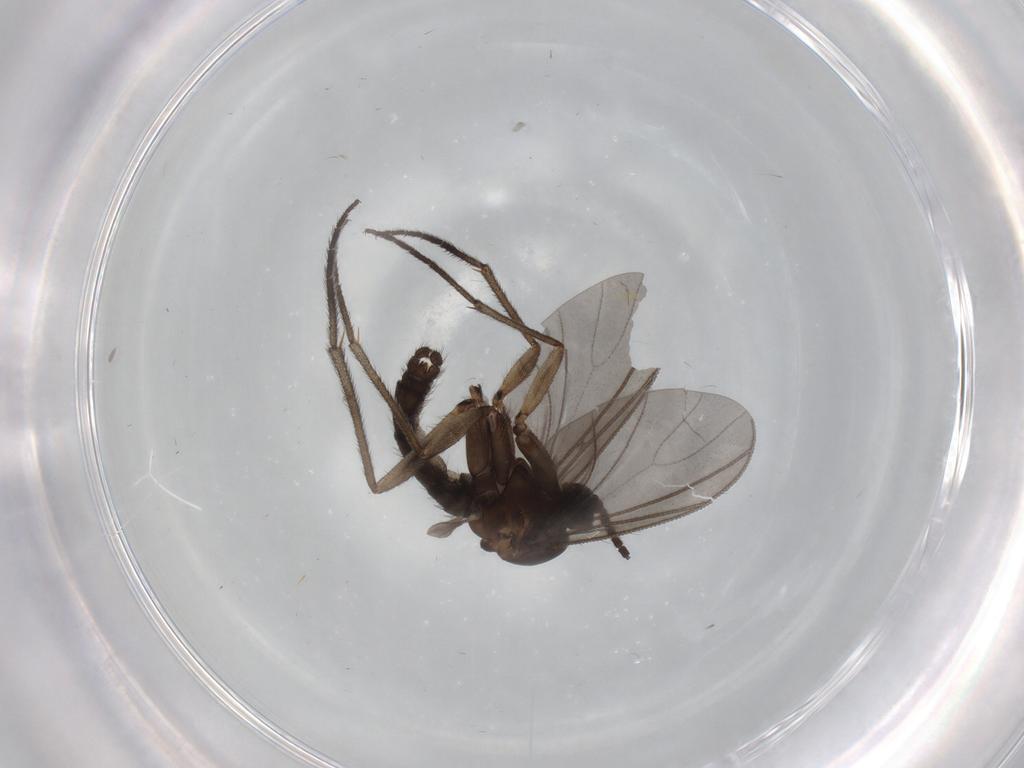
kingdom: Animalia
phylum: Arthropoda
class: Insecta
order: Diptera
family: Sciaridae
